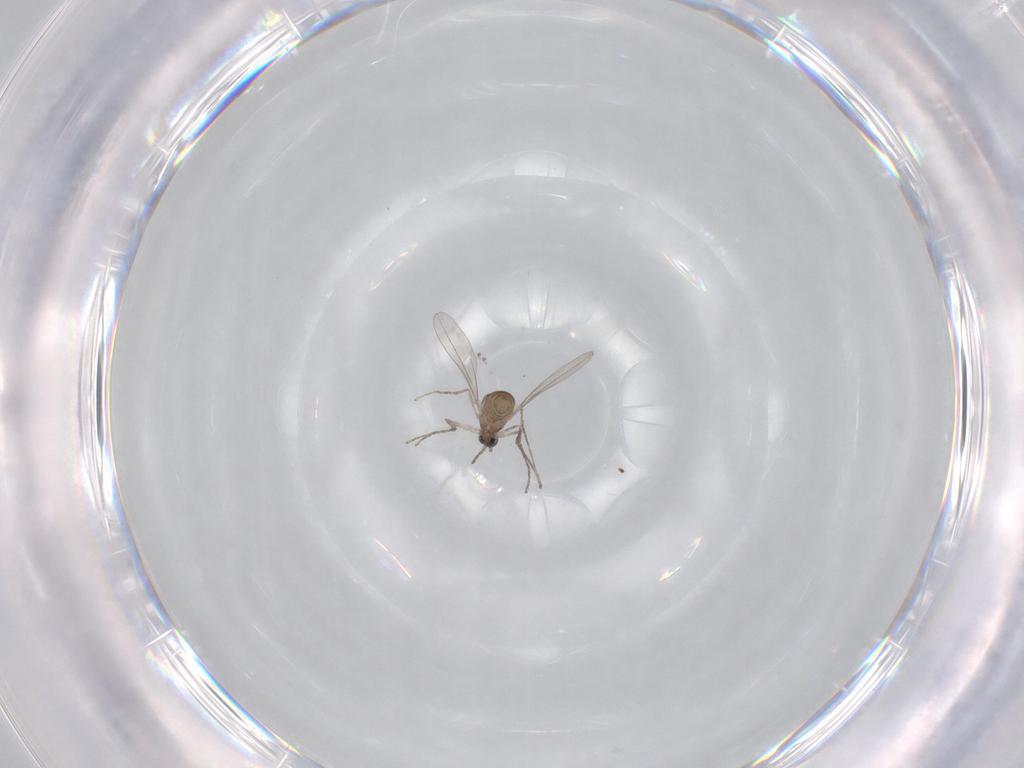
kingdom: Animalia
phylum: Arthropoda
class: Insecta
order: Diptera
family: Cecidomyiidae
